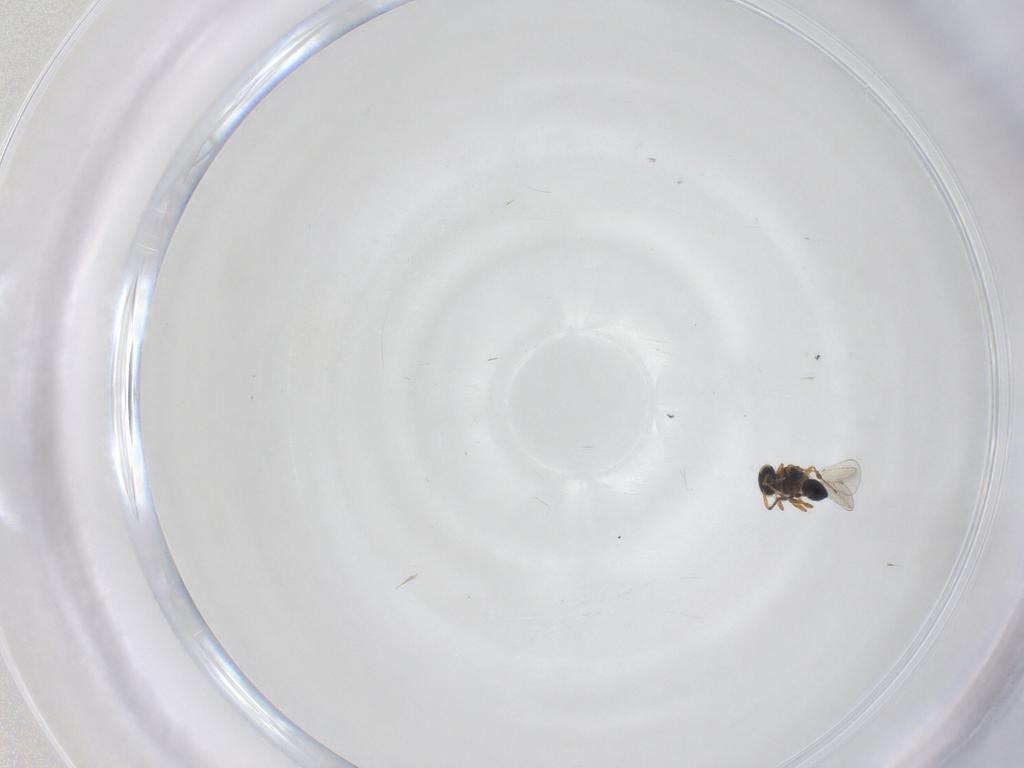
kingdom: Animalia
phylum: Arthropoda
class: Insecta
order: Hymenoptera
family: Platygastridae
